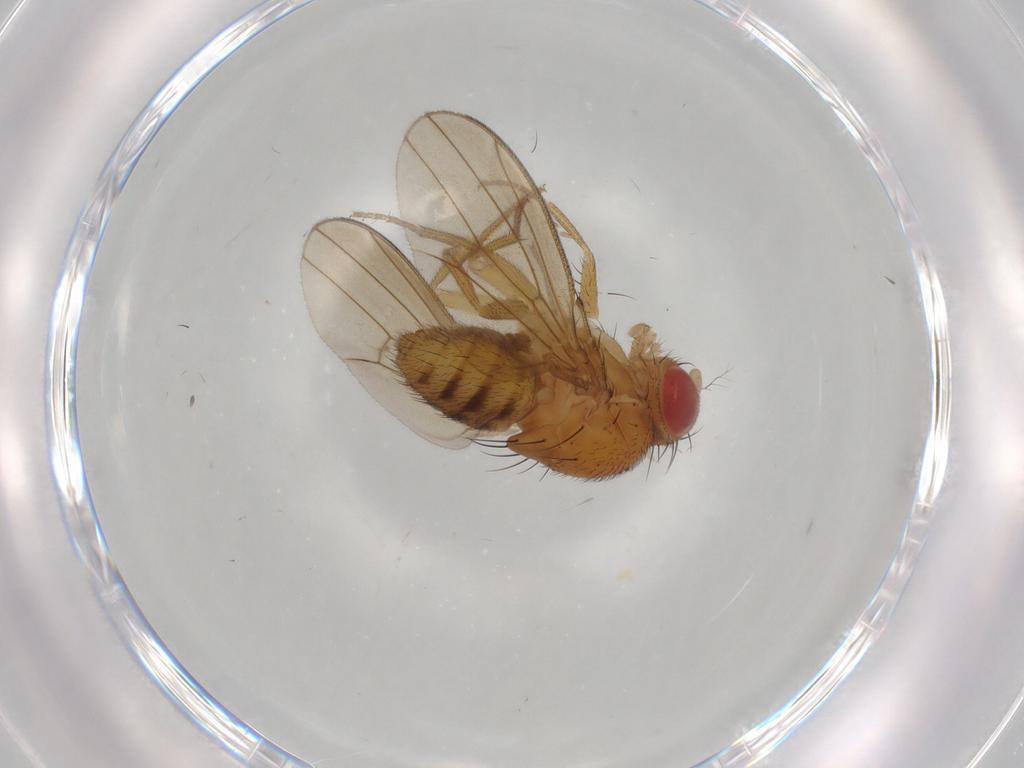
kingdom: Animalia
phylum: Arthropoda
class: Insecta
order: Diptera
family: Drosophilidae
